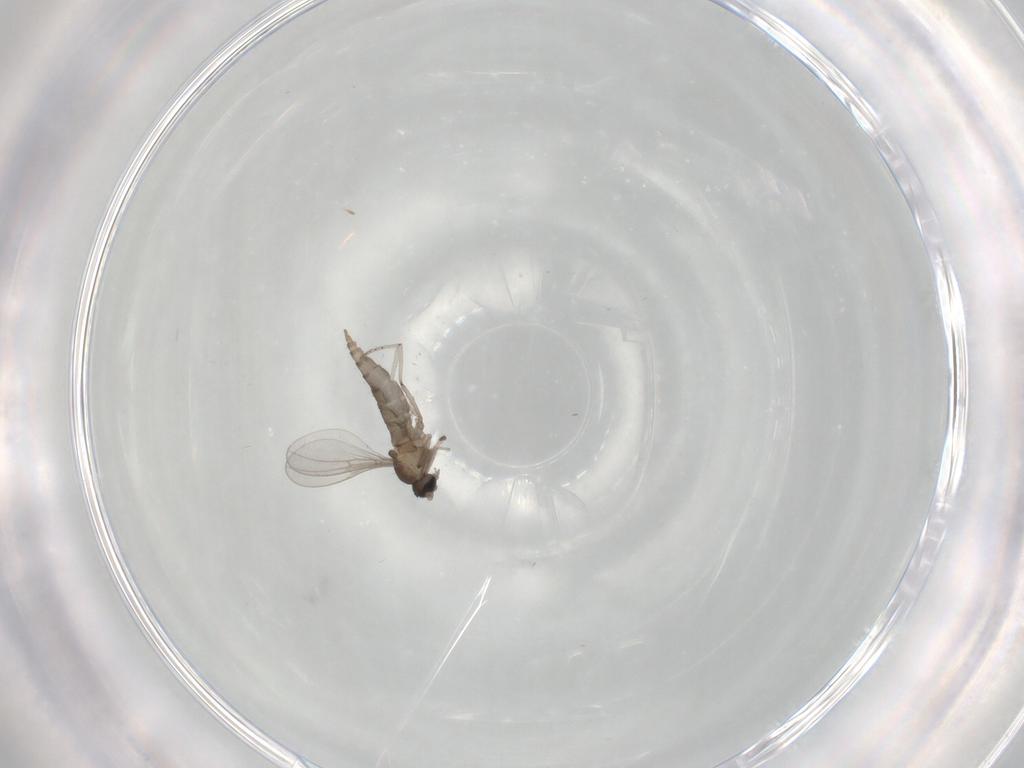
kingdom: Animalia
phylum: Arthropoda
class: Insecta
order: Diptera
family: Cecidomyiidae
